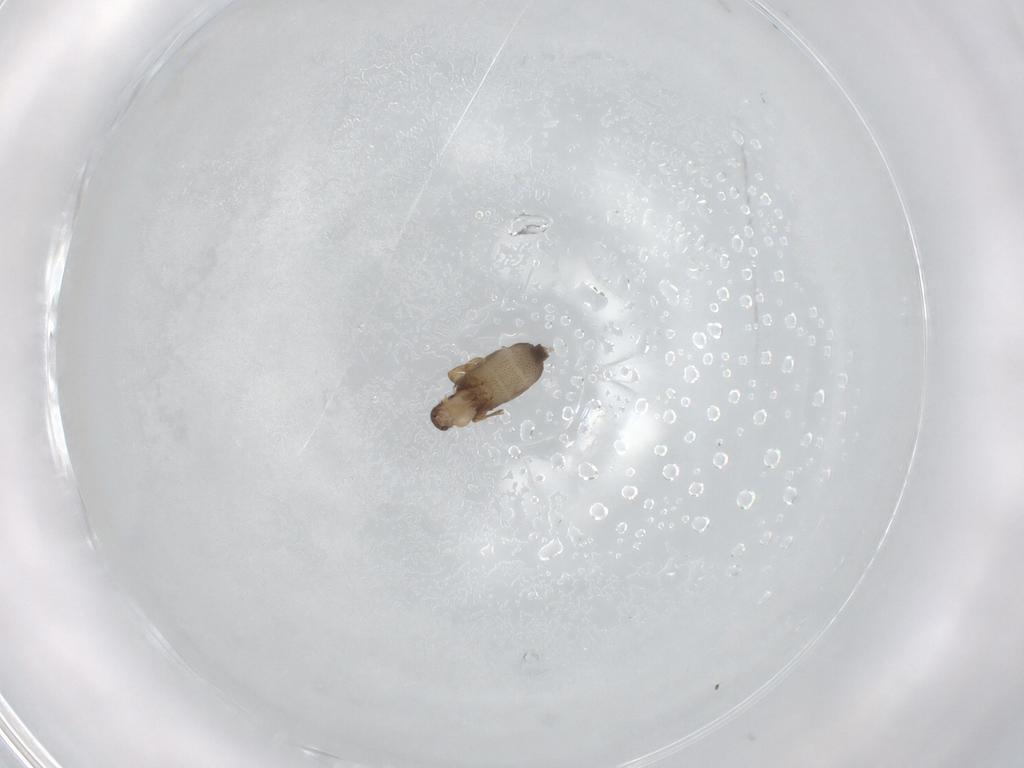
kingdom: Animalia
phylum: Arthropoda
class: Insecta
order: Diptera
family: Phoridae
